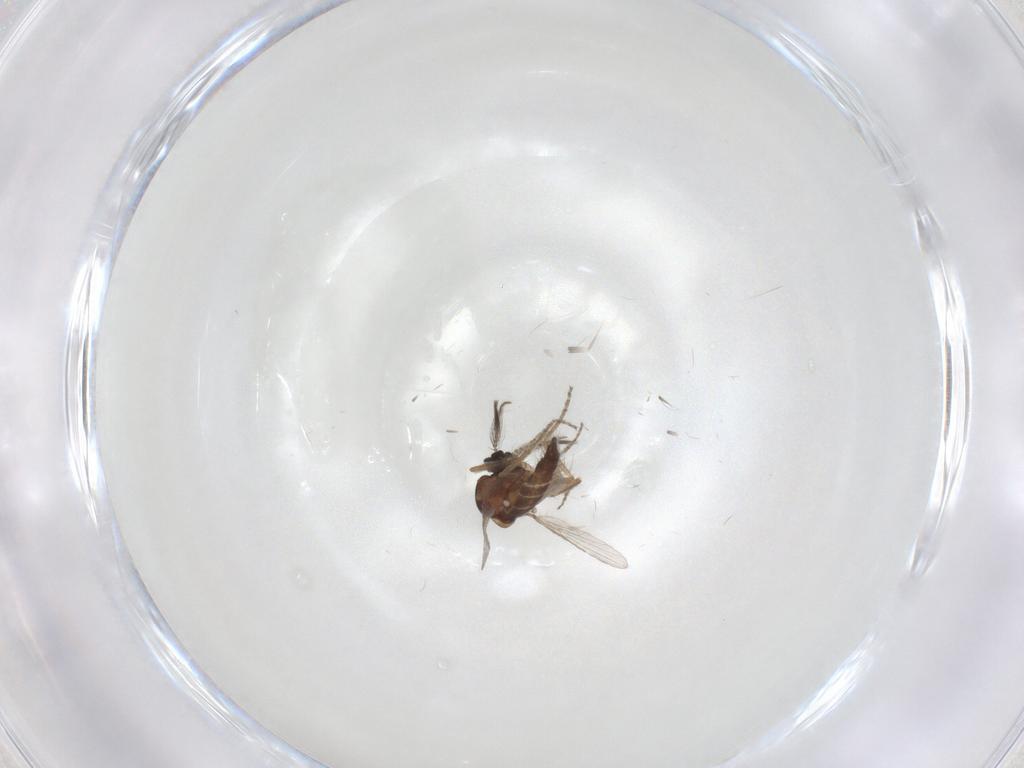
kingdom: Animalia
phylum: Arthropoda
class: Insecta
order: Diptera
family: Ceratopogonidae
